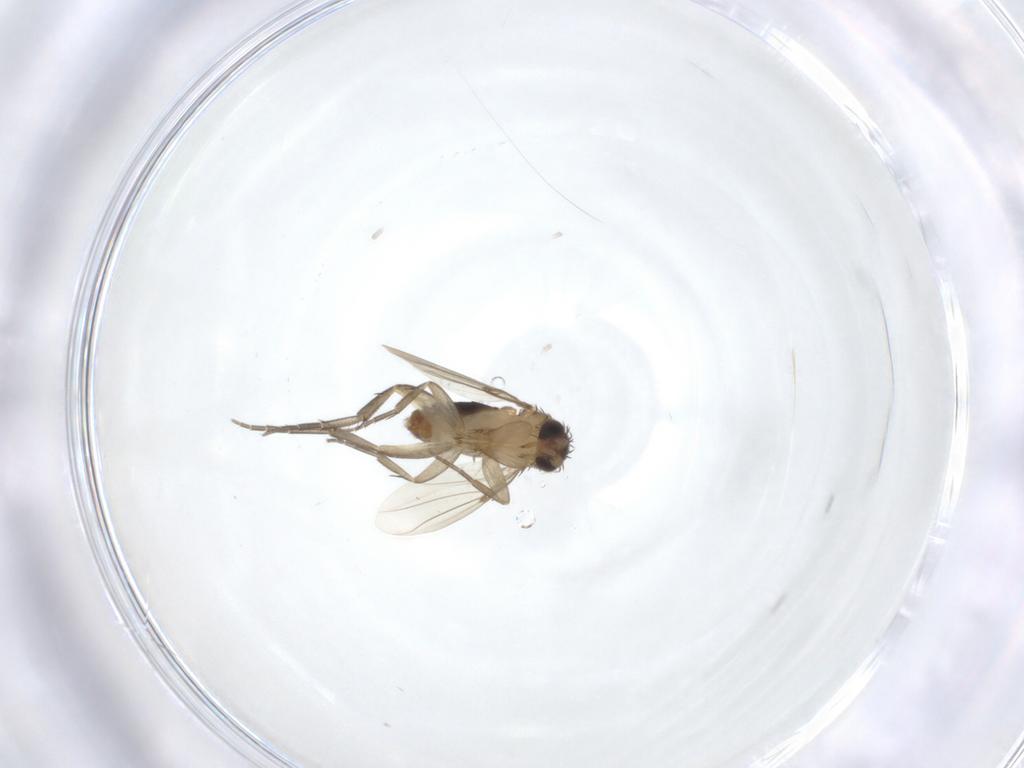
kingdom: Animalia
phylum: Arthropoda
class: Insecta
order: Diptera
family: Phoridae
